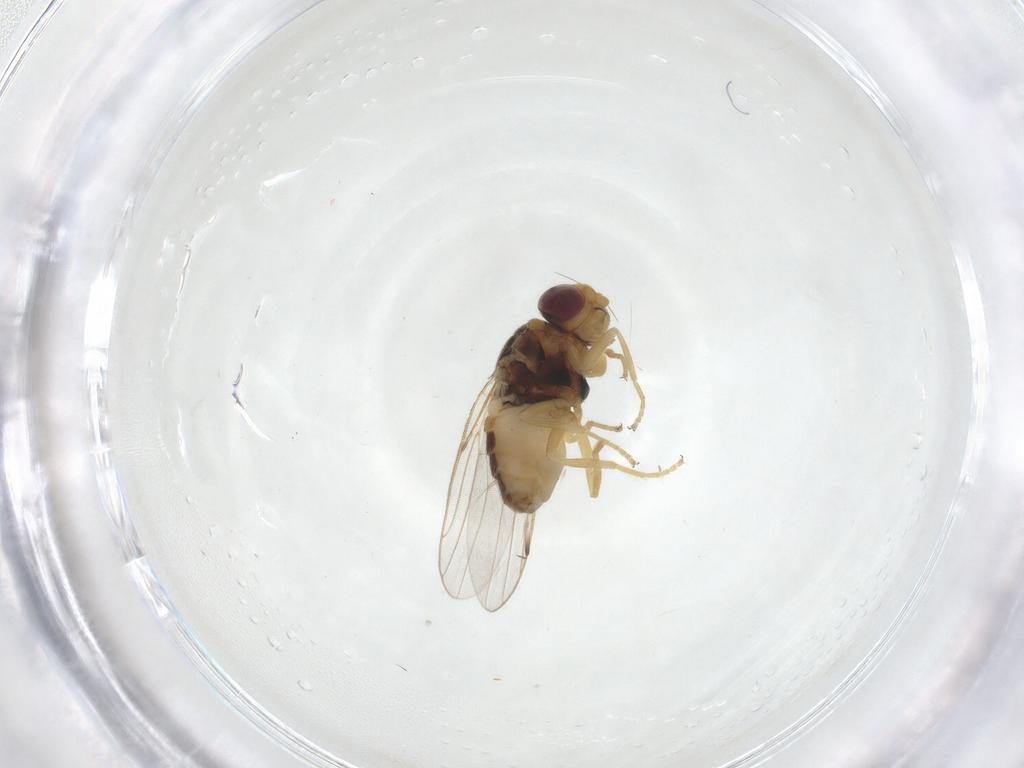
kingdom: Animalia
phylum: Arthropoda
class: Insecta
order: Diptera
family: Chloropidae
